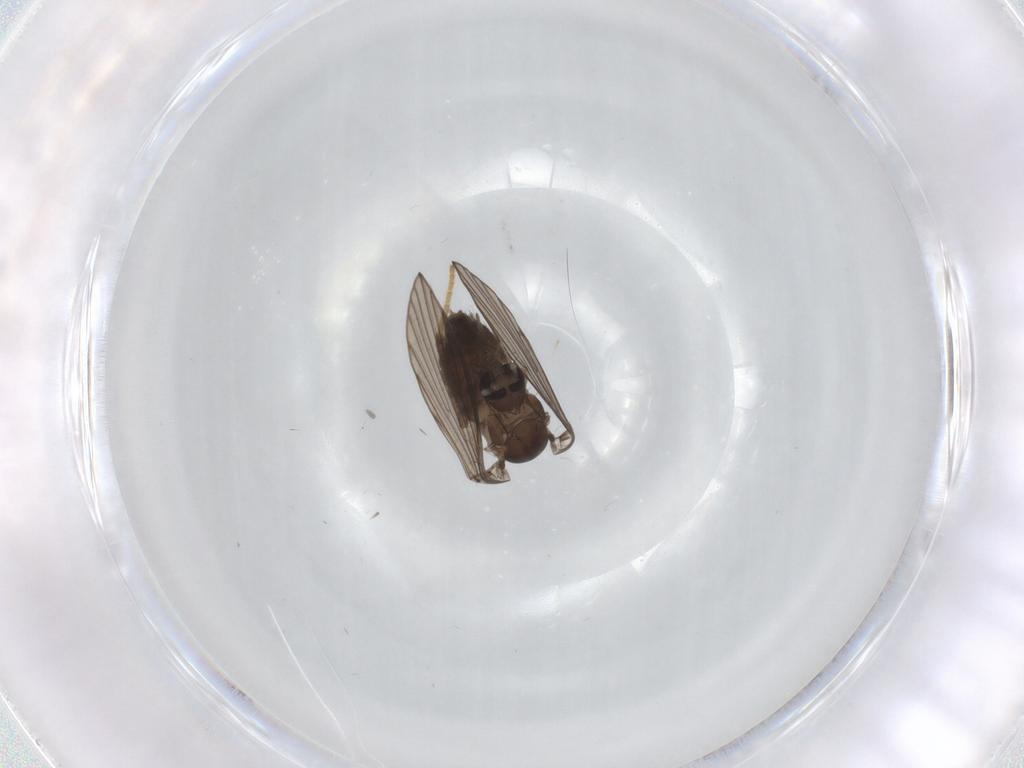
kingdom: Animalia
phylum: Arthropoda
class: Insecta
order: Diptera
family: Psychodidae
